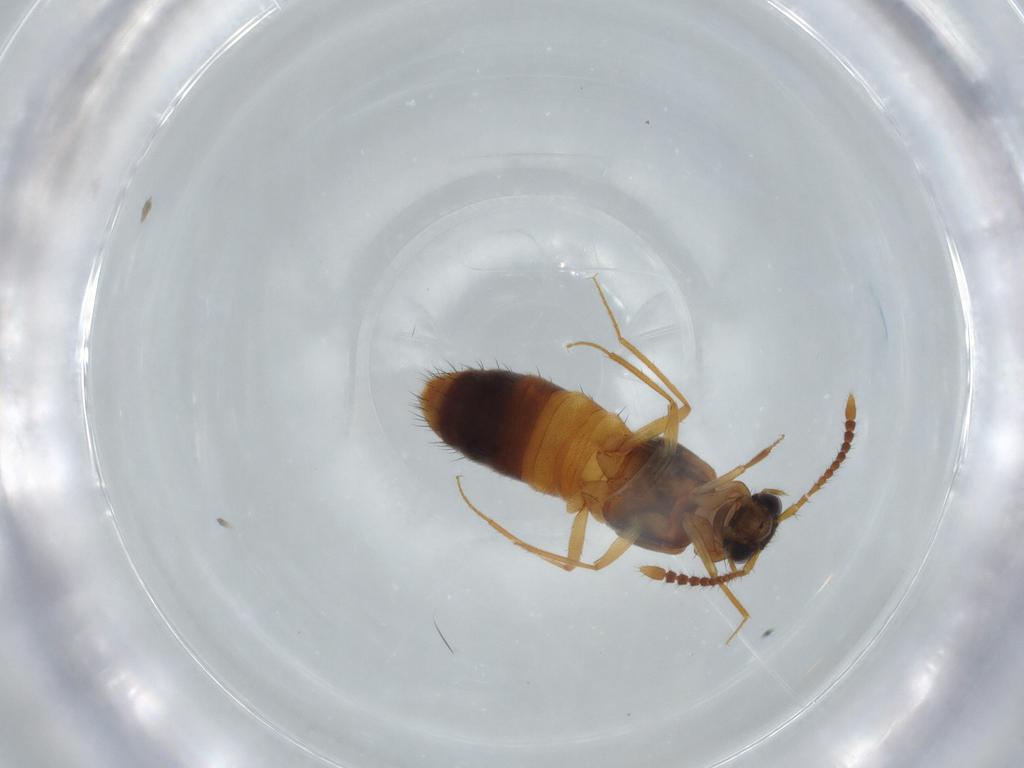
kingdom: Animalia
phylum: Arthropoda
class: Insecta
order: Coleoptera
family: Staphylinidae
